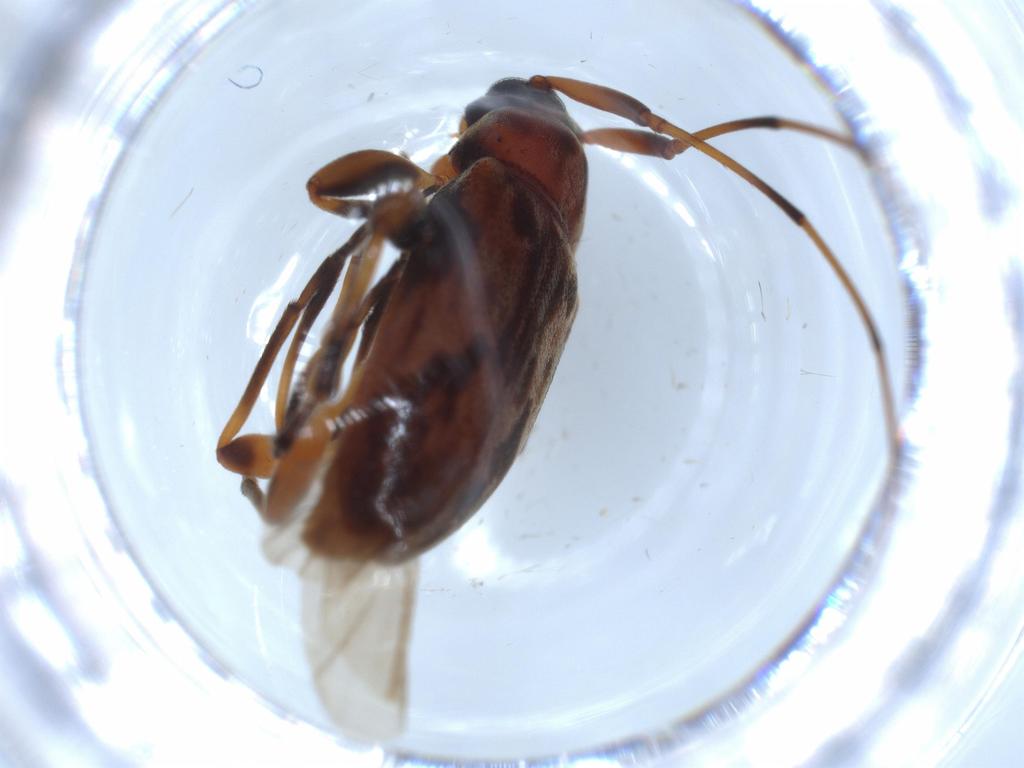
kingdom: Animalia
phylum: Arthropoda
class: Insecta
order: Coleoptera
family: Cerambycidae
